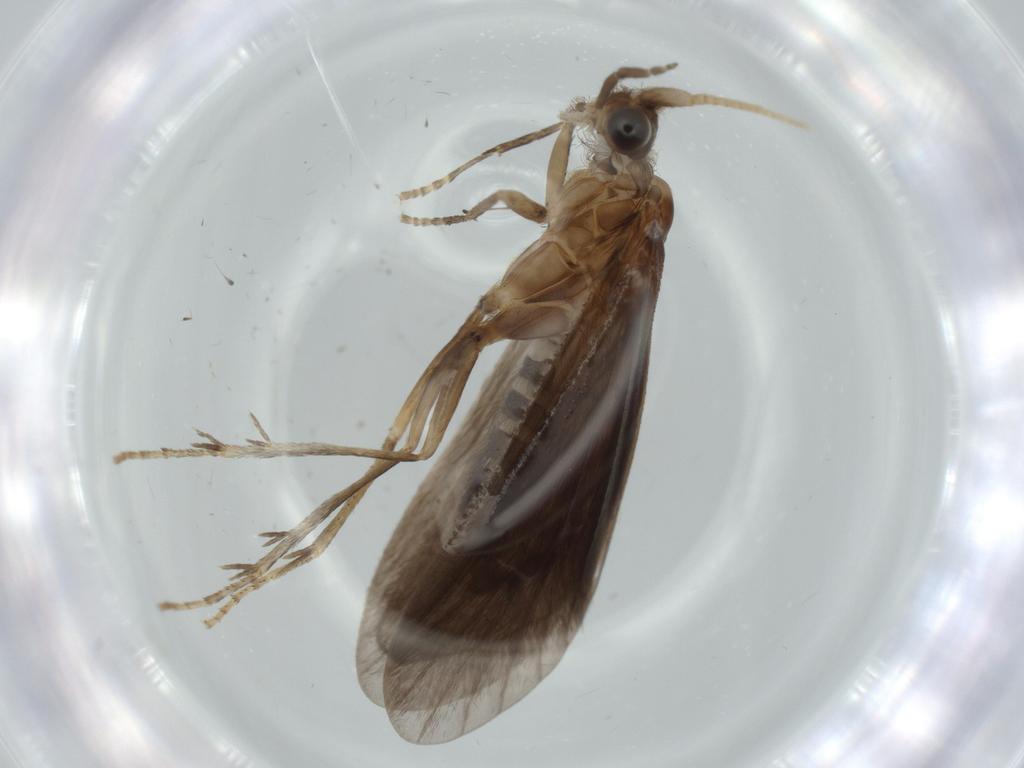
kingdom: Animalia
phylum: Arthropoda
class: Insecta
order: Trichoptera
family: Helicopsychidae
